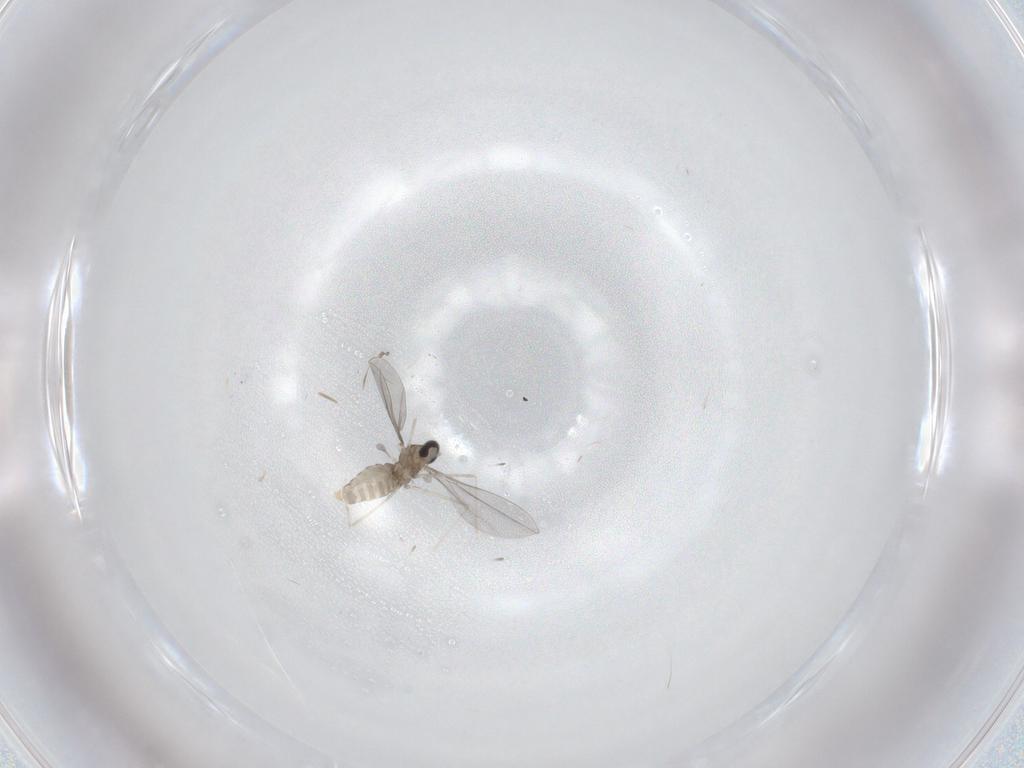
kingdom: Animalia
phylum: Arthropoda
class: Insecta
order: Diptera
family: Cecidomyiidae
